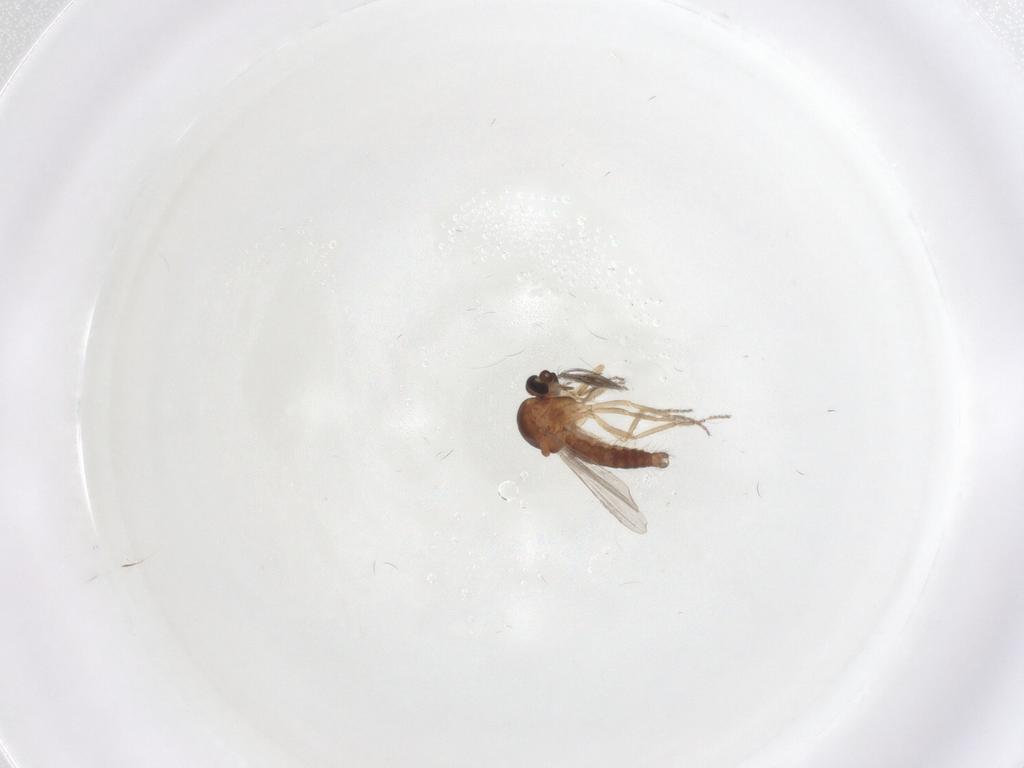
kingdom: Animalia
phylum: Arthropoda
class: Insecta
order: Diptera
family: Ceratopogonidae
